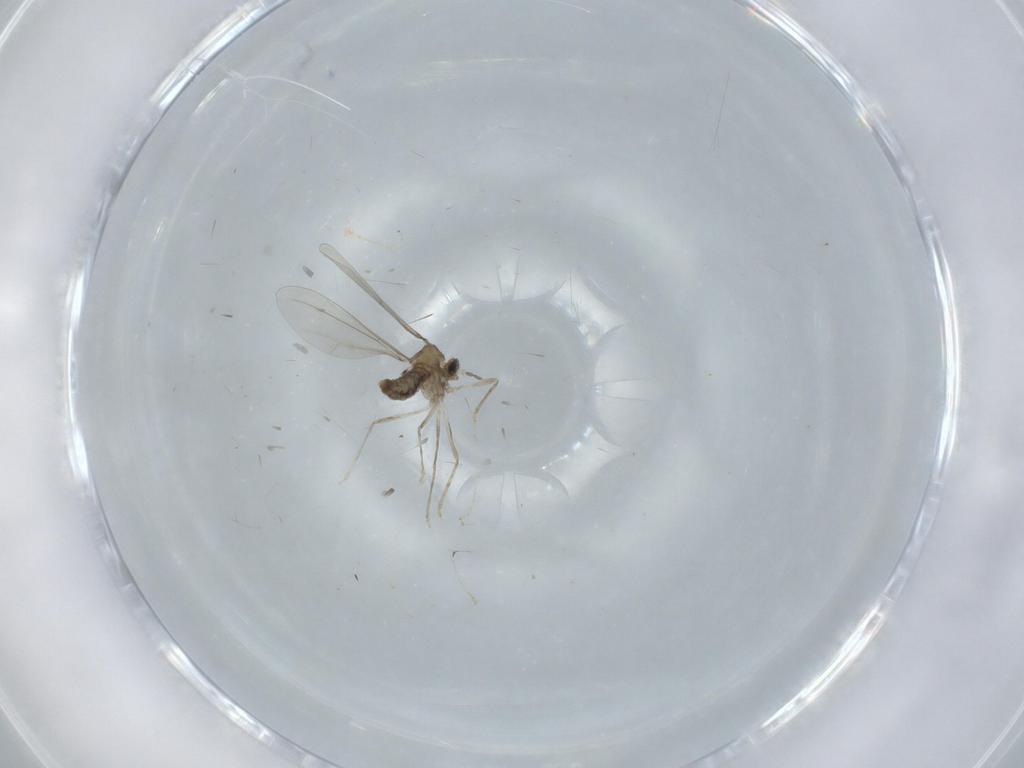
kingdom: Animalia
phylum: Arthropoda
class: Insecta
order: Diptera
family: Cecidomyiidae
